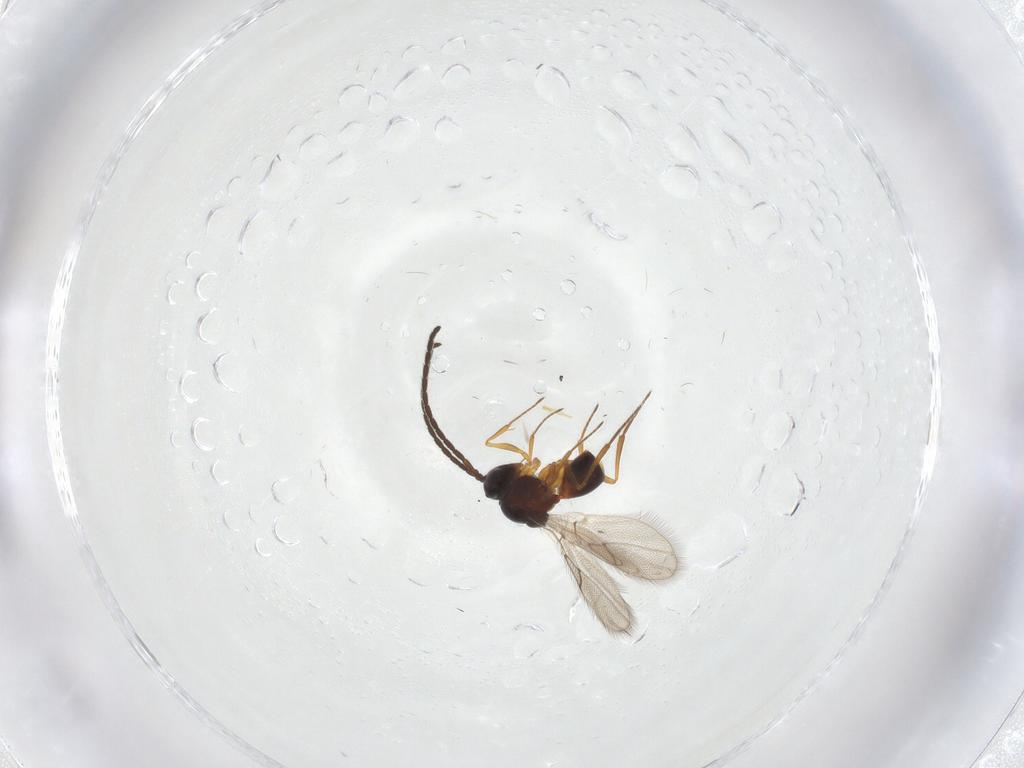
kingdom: Animalia
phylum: Arthropoda
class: Insecta
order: Hymenoptera
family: Figitidae
